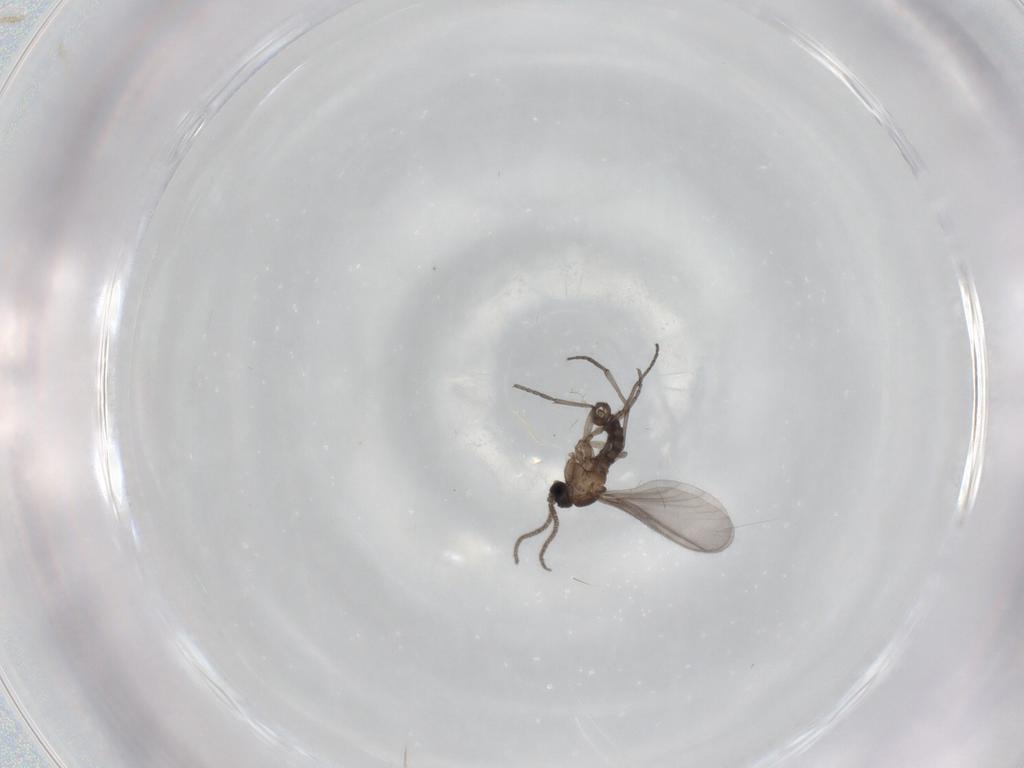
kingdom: Animalia
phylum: Arthropoda
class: Insecta
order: Diptera
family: Sciaridae
